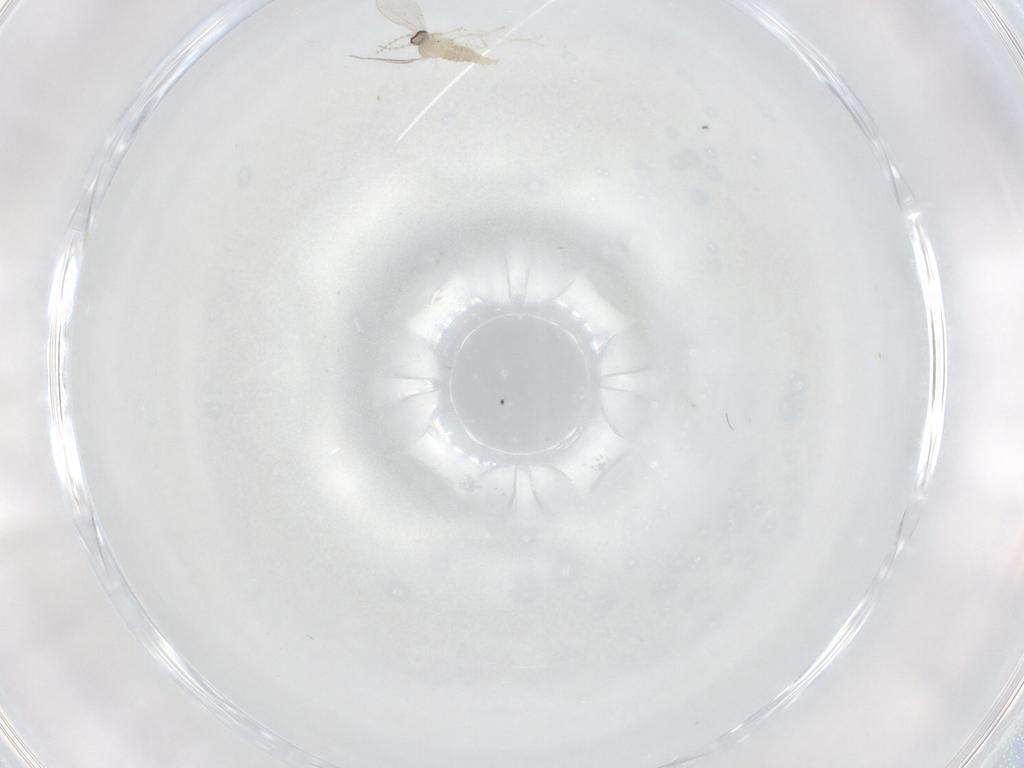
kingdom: Animalia
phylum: Arthropoda
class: Insecta
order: Diptera
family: Cecidomyiidae
